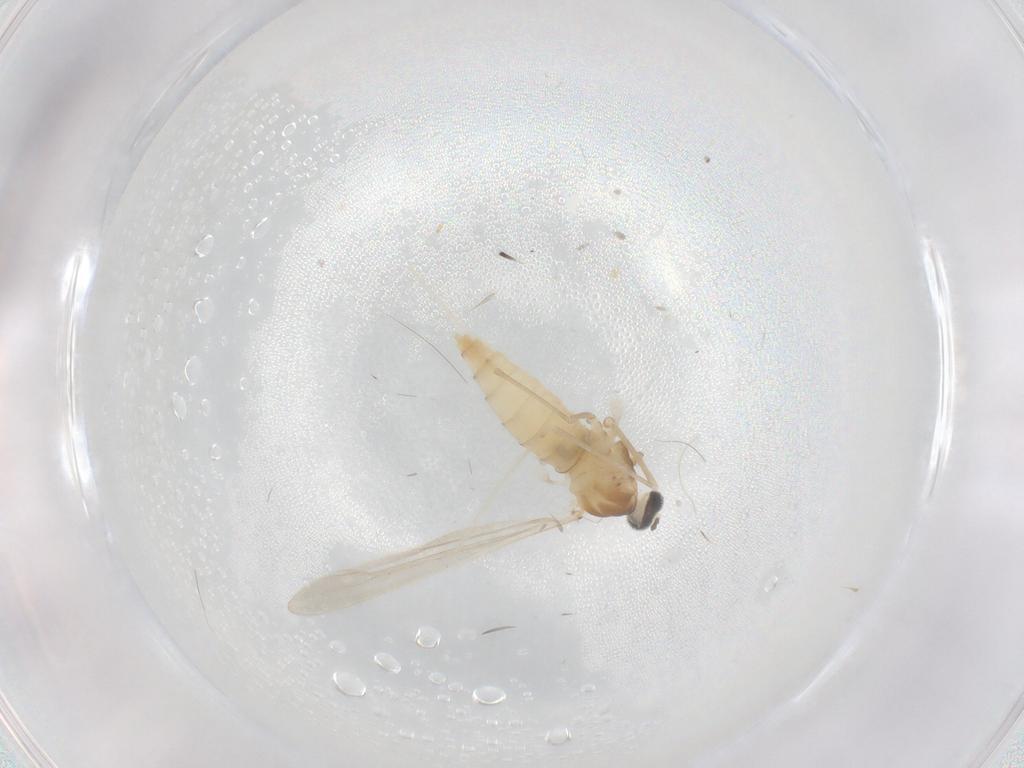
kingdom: Animalia
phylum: Arthropoda
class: Insecta
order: Diptera
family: Cecidomyiidae
